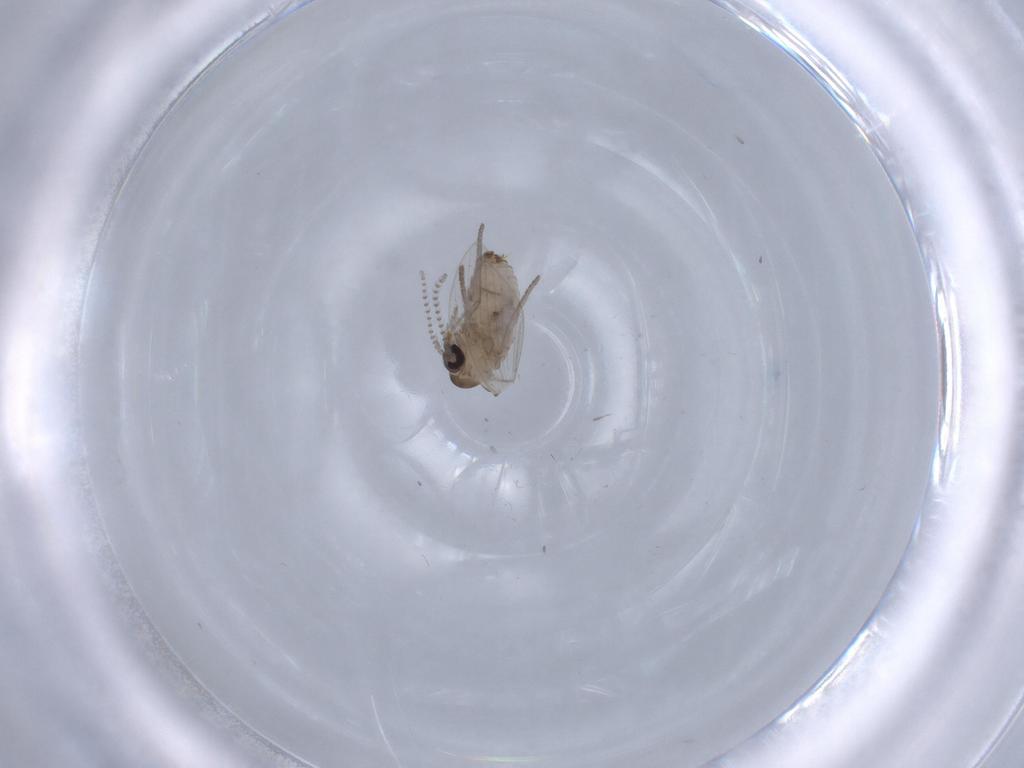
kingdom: Animalia
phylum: Arthropoda
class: Insecta
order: Diptera
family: Psychodidae
